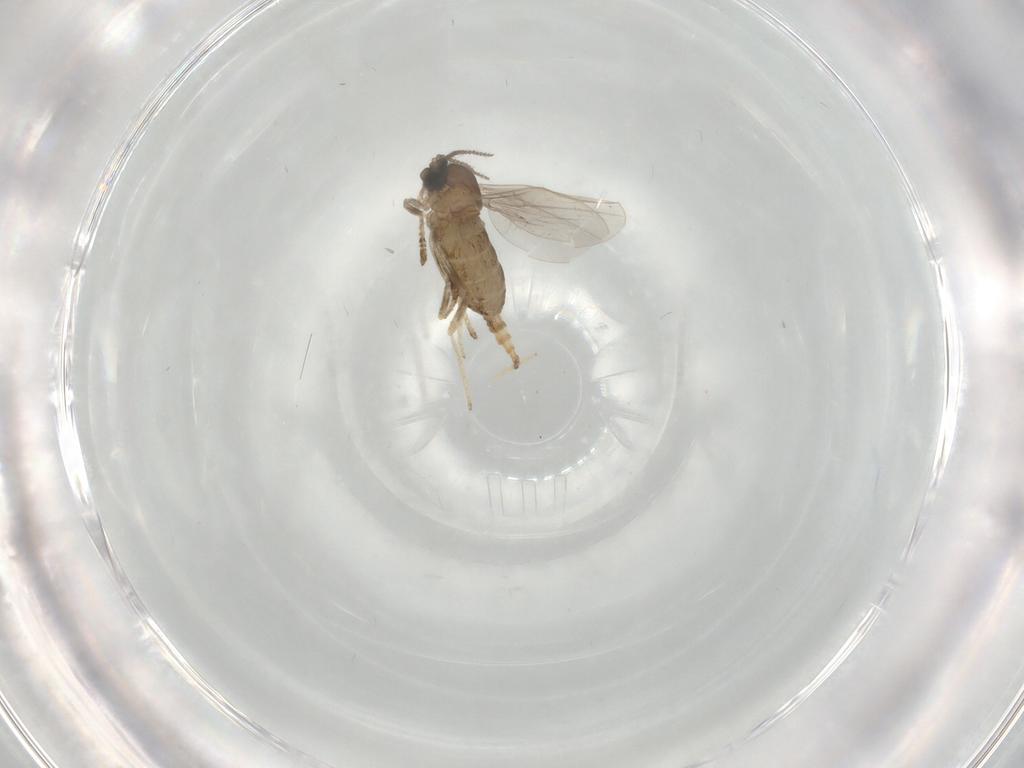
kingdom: Animalia
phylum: Arthropoda
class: Insecta
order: Diptera
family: Cecidomyiidae
